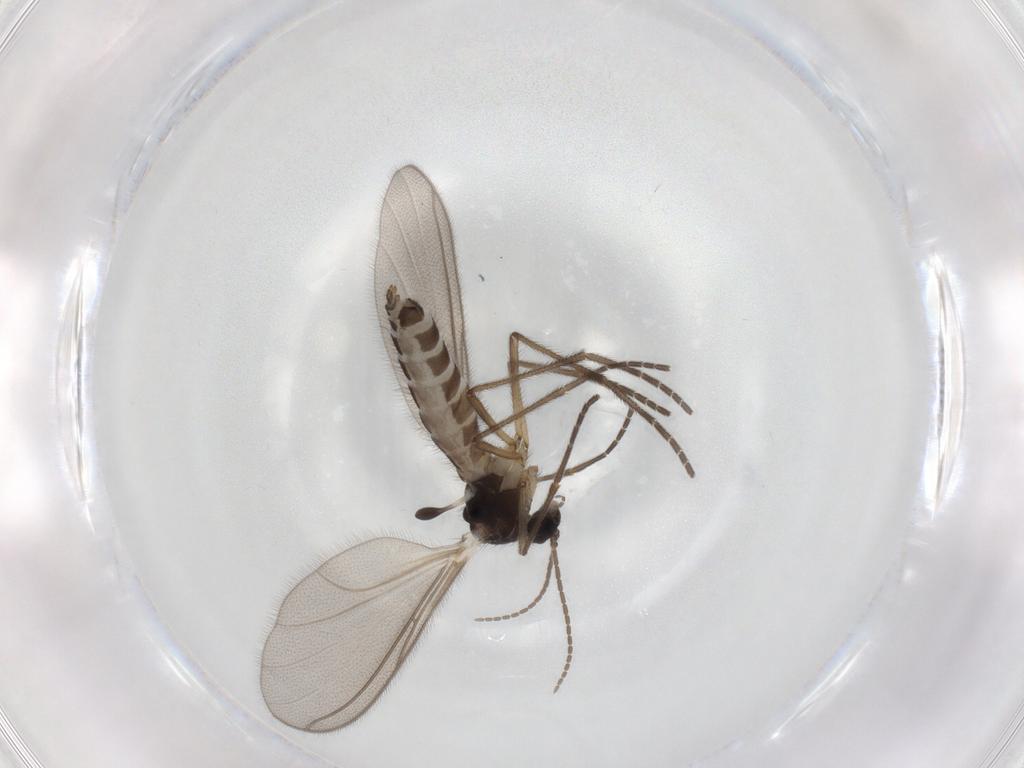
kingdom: Animalia
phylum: Arthropoda
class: Insecta
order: Diptera
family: Mycetophilidae
